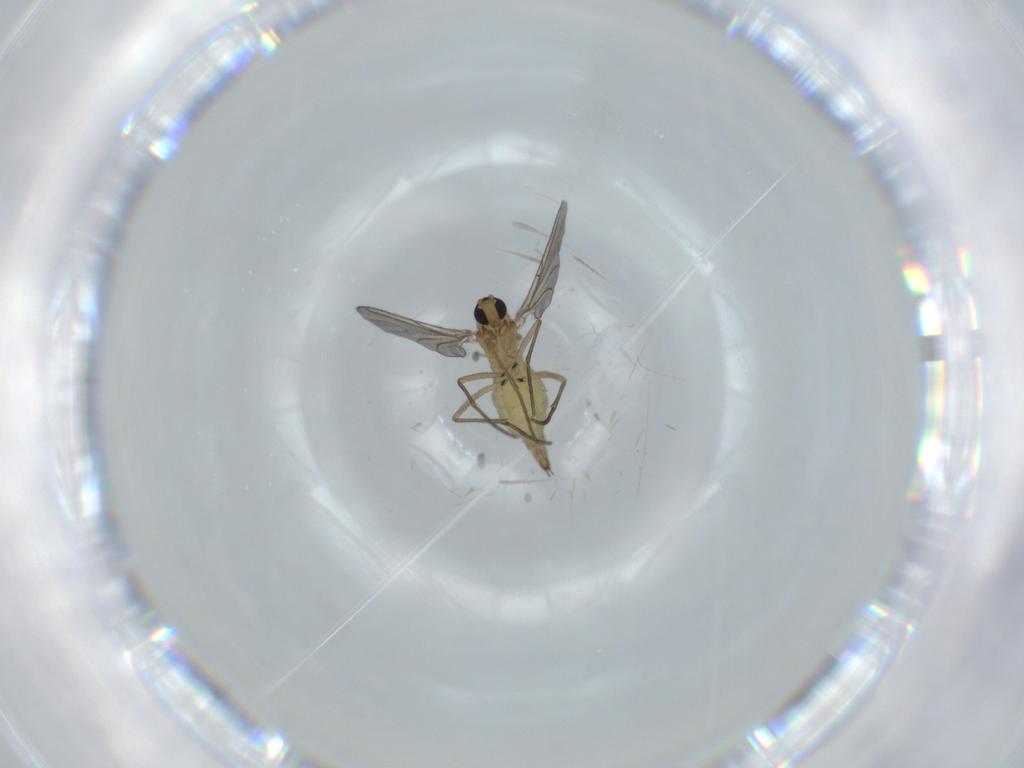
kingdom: Animalia
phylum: Arthropoda
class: Insecta
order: Diptera
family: Sciaridae
